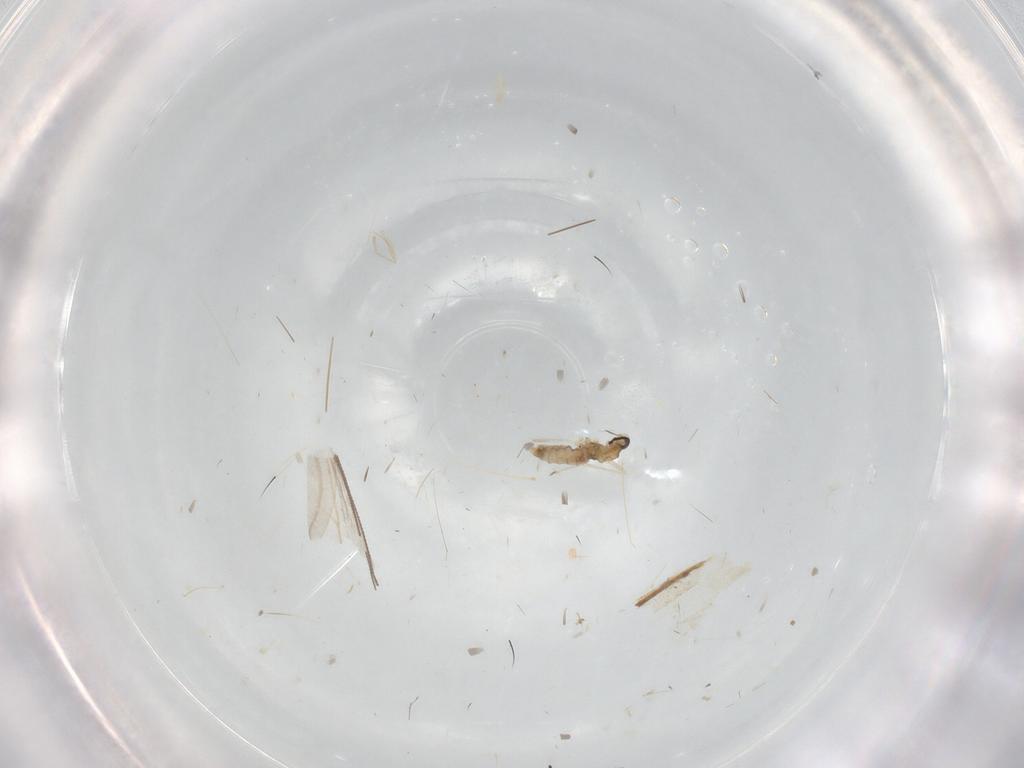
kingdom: Animalia
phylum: Arthropoda
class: Insecta
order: Diptera
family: Cecidomyiidae
